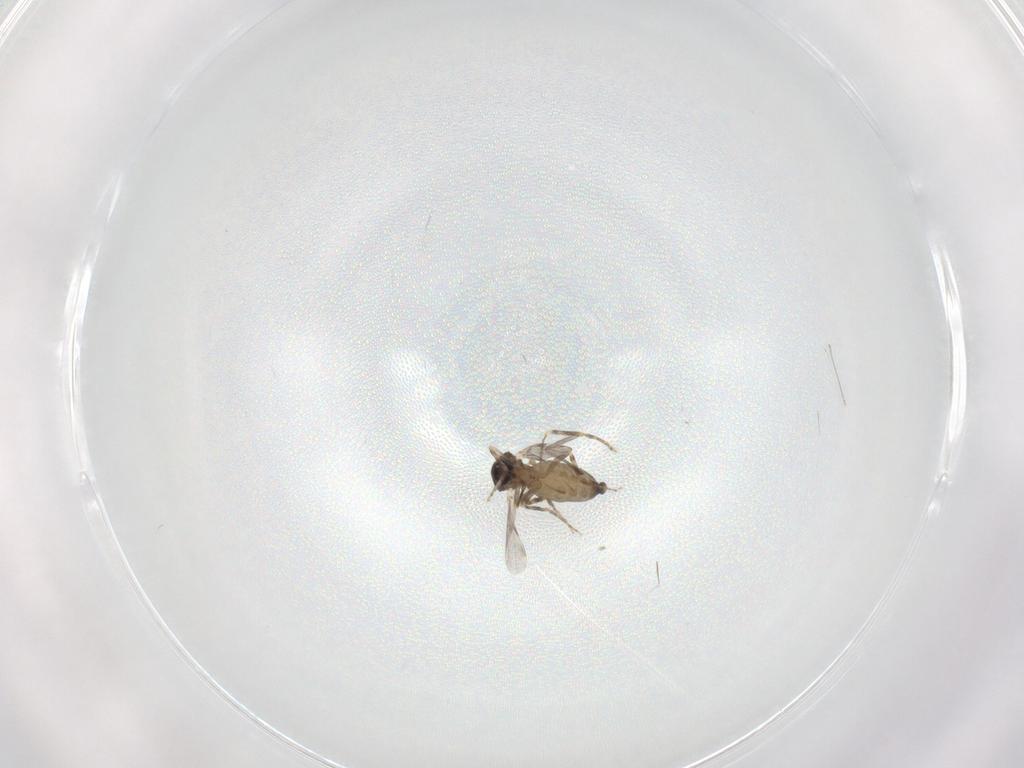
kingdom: Animalia
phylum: Arthropoda
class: Insecta
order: Diptera
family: Ceratopogonidae
